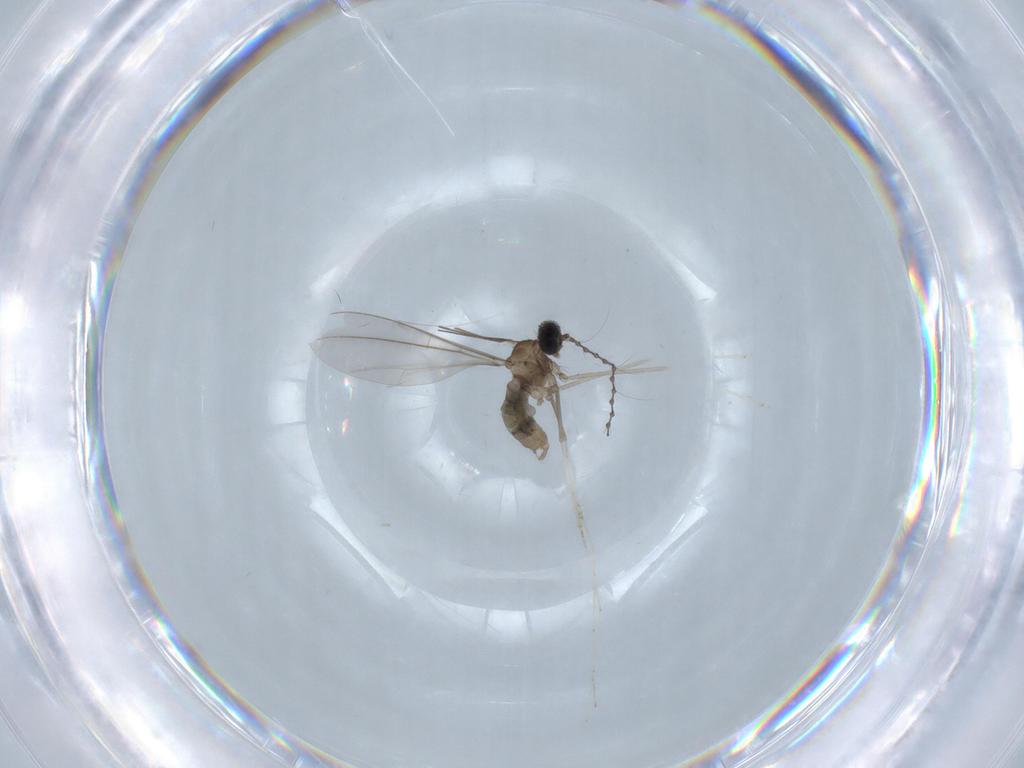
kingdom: Animalia
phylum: Arthropoda
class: Insecta
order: Diptera
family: Cecidomyiidae
